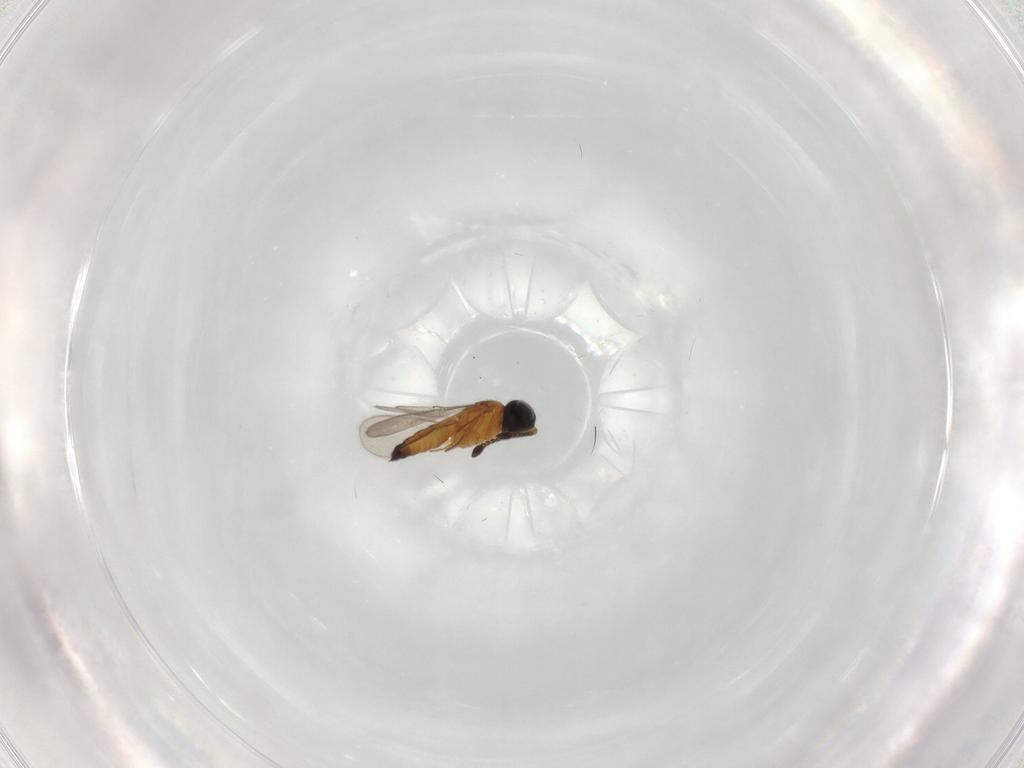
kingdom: Animalia
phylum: Arthropoda
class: Insecta
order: Hymenoptera
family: Scelionidae
